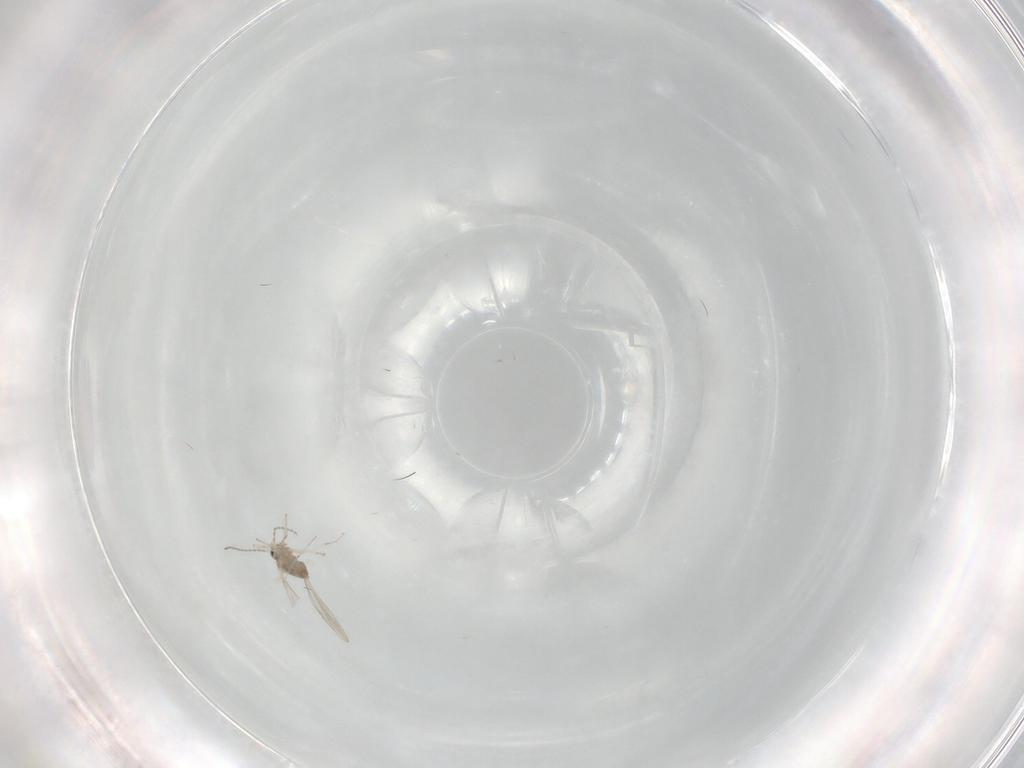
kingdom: Animalia
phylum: Arthropoda
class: Insecta
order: Diptera
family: Cecidomyiidae
